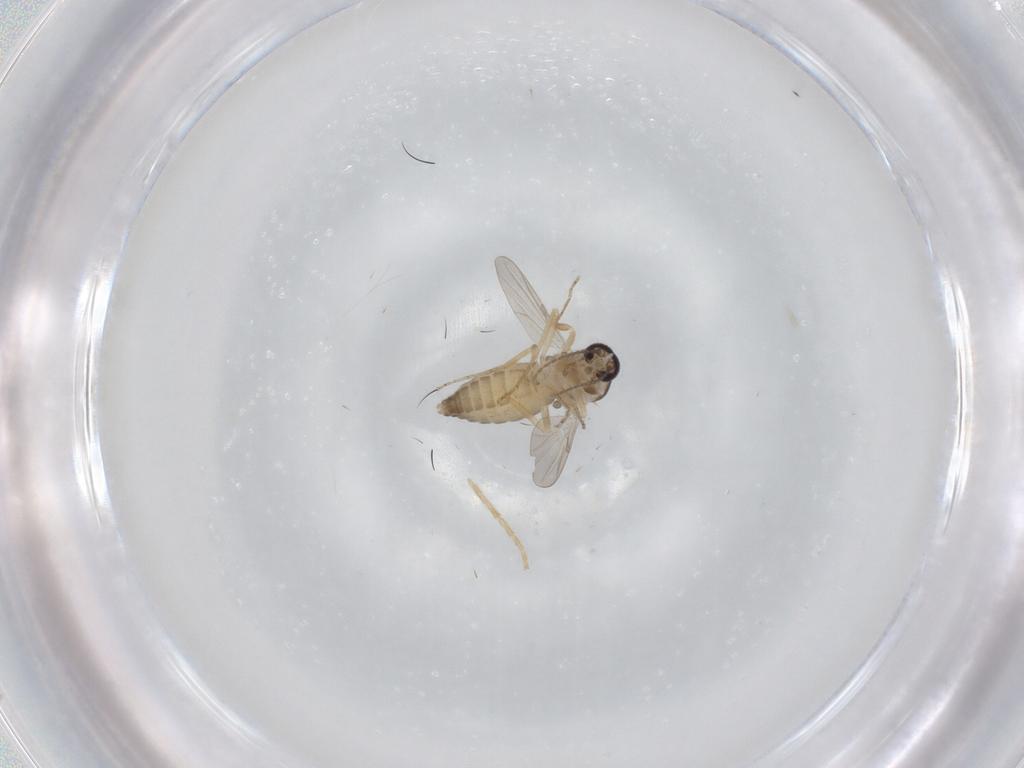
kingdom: Animalia
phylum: Arthropoda
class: Insecta
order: Diptera
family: Ceratopogonidae
